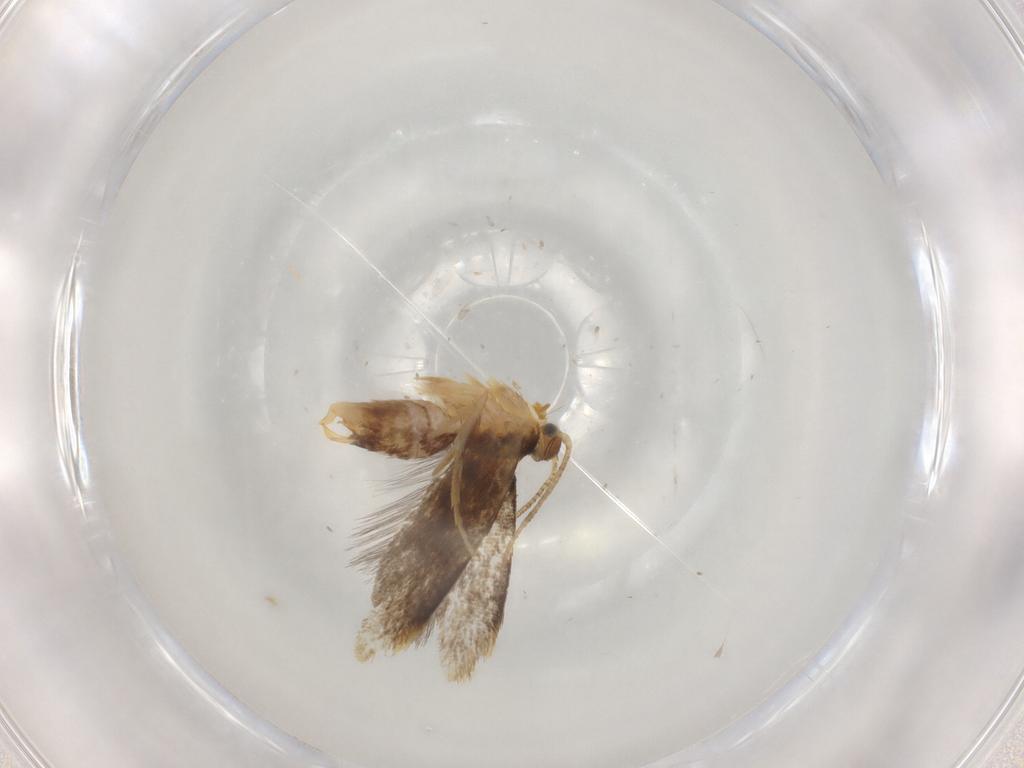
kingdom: Animalia
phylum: Arthropoda
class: Insecta
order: Lepidoptera
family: Dryadaulidae
